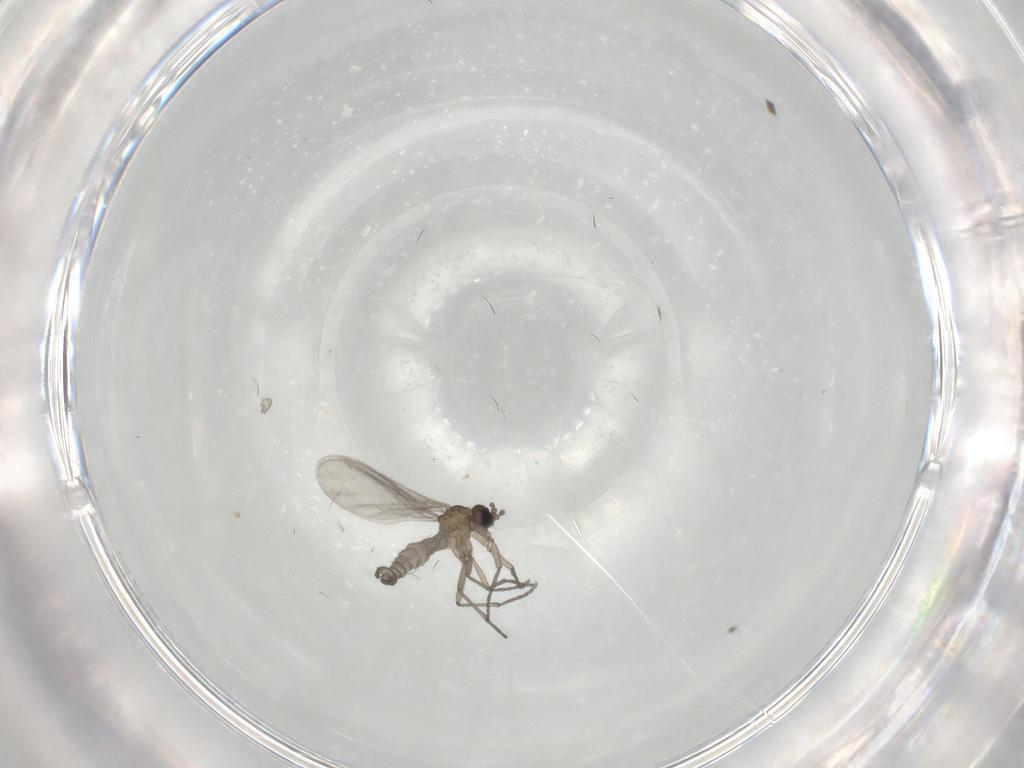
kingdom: Animalia
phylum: Arthropoda
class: Insecta
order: Diptera
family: Sciaridae
